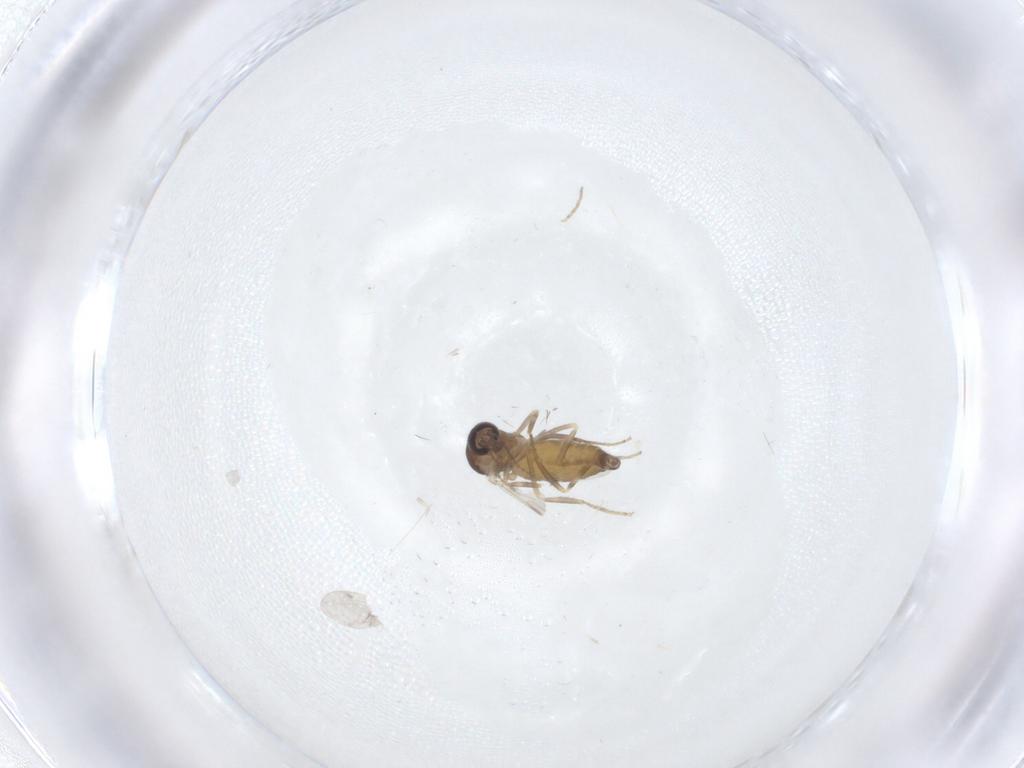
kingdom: Animalia
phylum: Arthropoda
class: Insecta
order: Diptera
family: Ceratopogonidae
